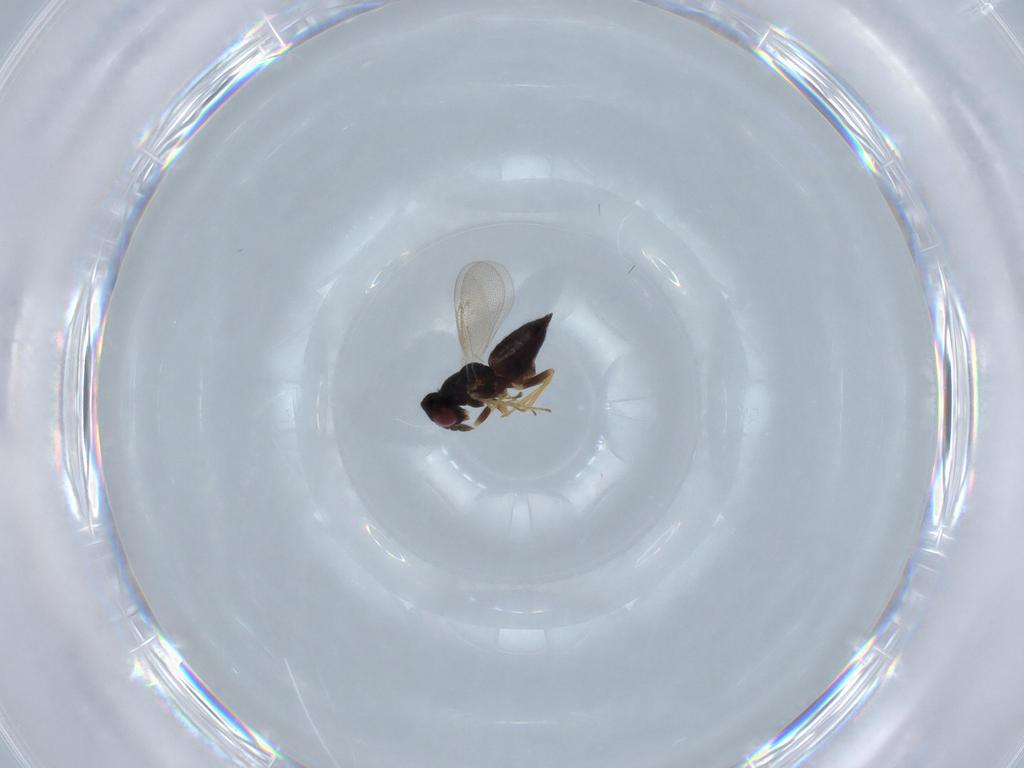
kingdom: Animalia
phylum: Arthropoda
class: Insecta
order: Hymenoptera
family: Eulophidae
